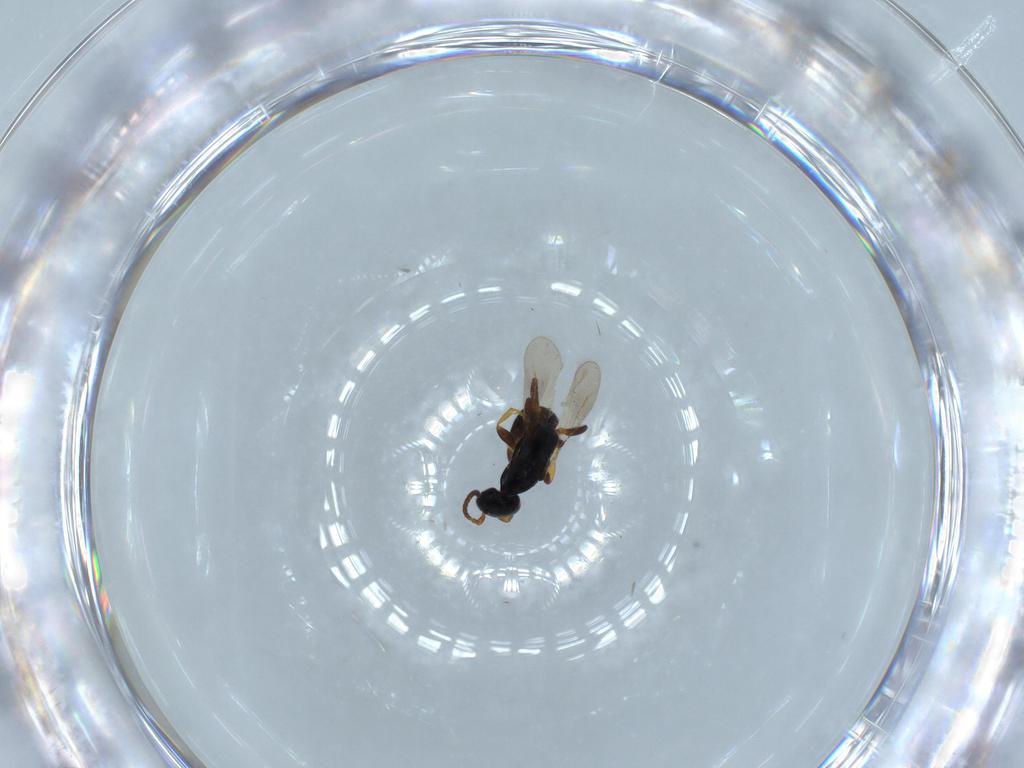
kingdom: Animalia
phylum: Arthropoda
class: Insecta
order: Hymenoptera
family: Bethylidae
